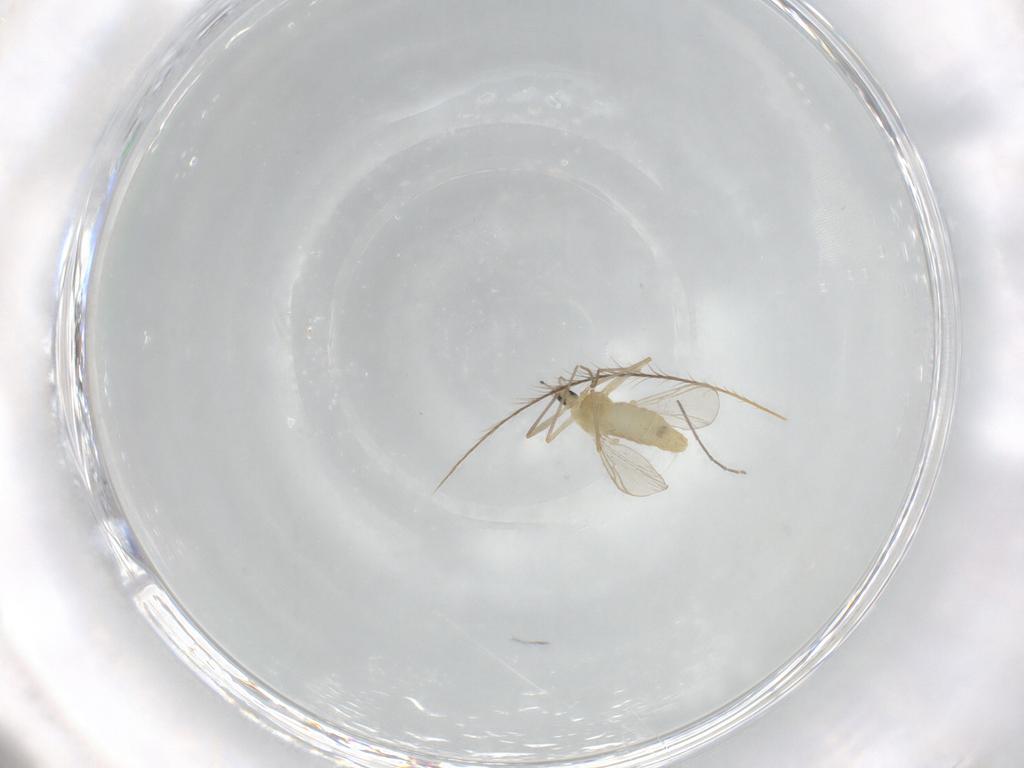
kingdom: Animalia
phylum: Arthropoda
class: Insecta
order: Diptera
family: Chironomidae
